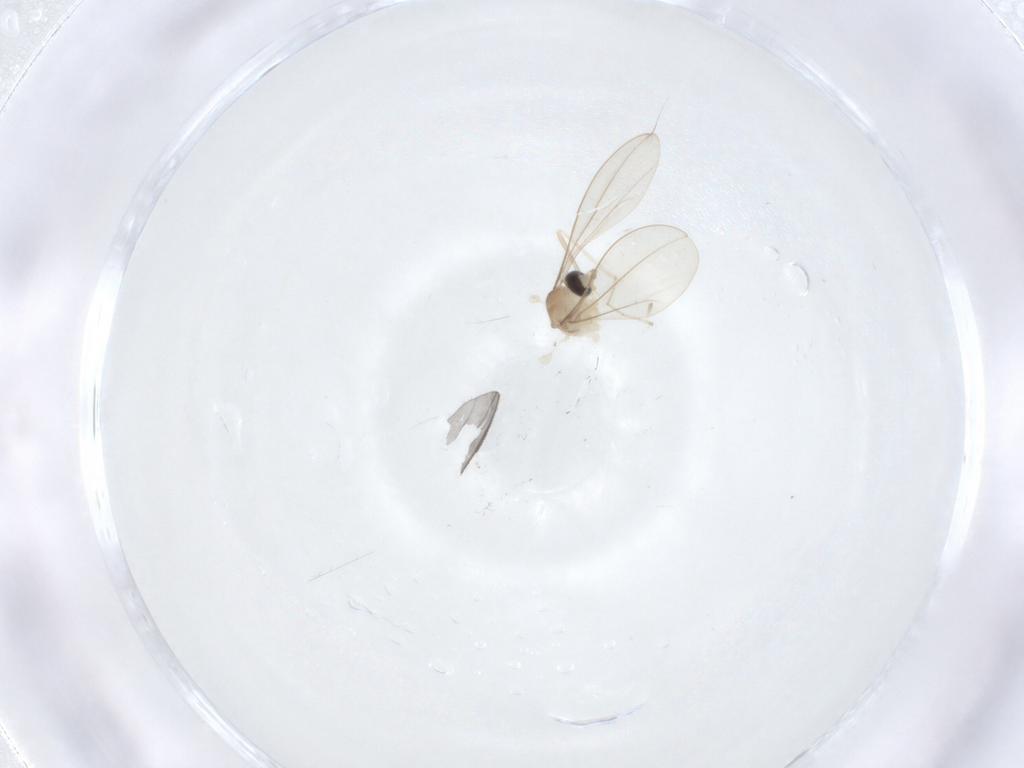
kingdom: Animalia
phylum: Arthropoda
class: Insecta
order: Diptera
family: Cecidomyiidae
